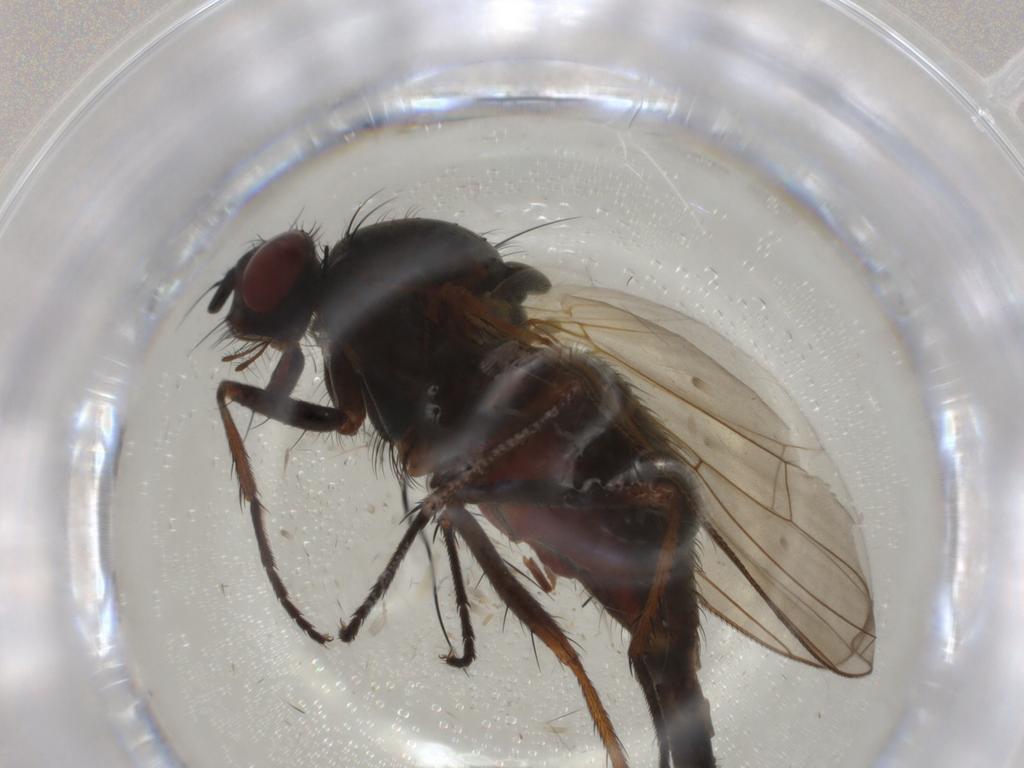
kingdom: Animalia
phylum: Arthropoda
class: Insecta
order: Diptera
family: Anthomyiidae
